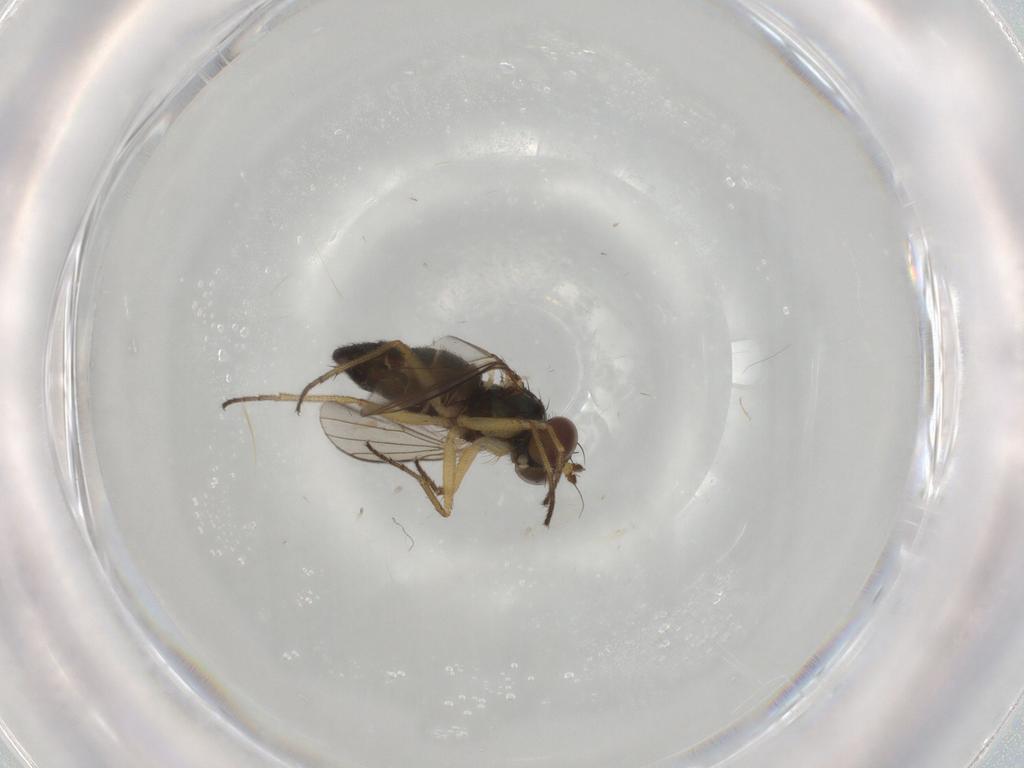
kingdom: Animalia
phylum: Arthropoda
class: Insecta
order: Diptera
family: Dolichopodidae
